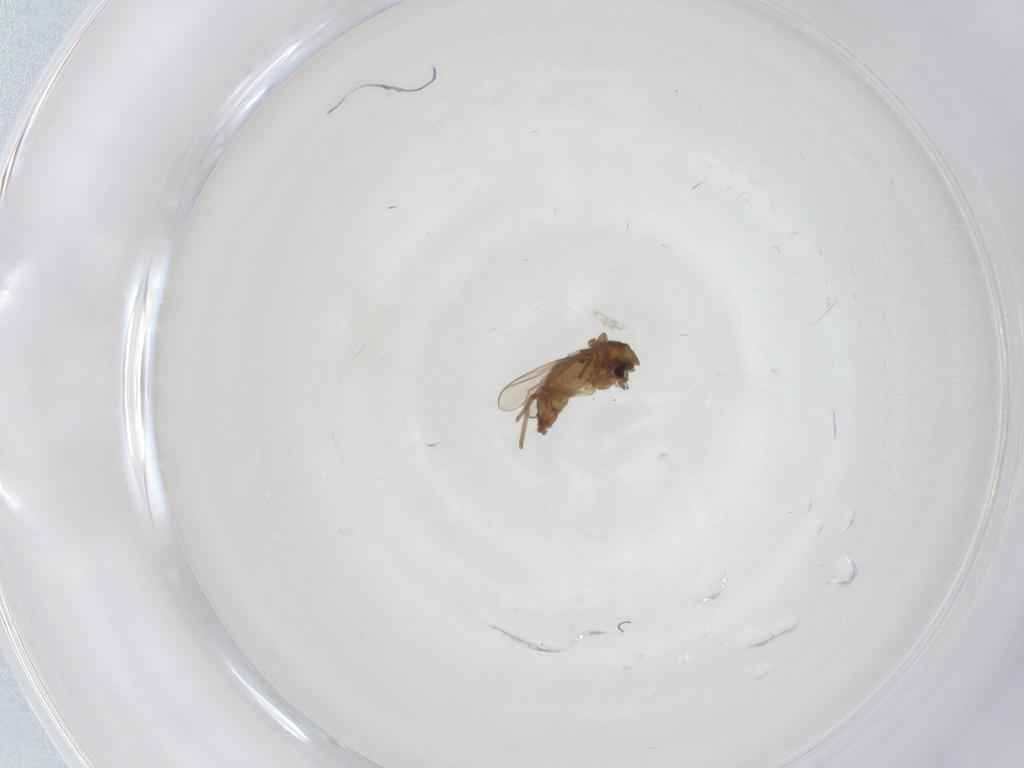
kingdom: Animalia
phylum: Arthropoda
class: Insecta
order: Diptera
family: Chironomidae
